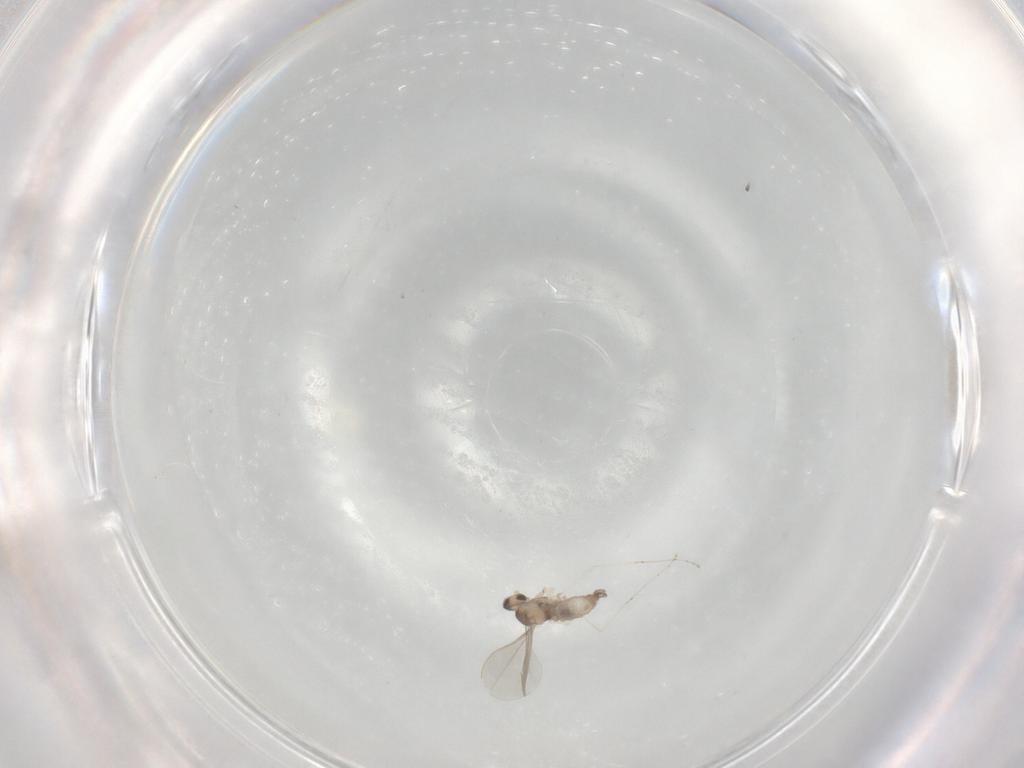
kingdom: Animalia
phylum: Arthropoda
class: Insecta
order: Diptera
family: Cecidomyiidae
